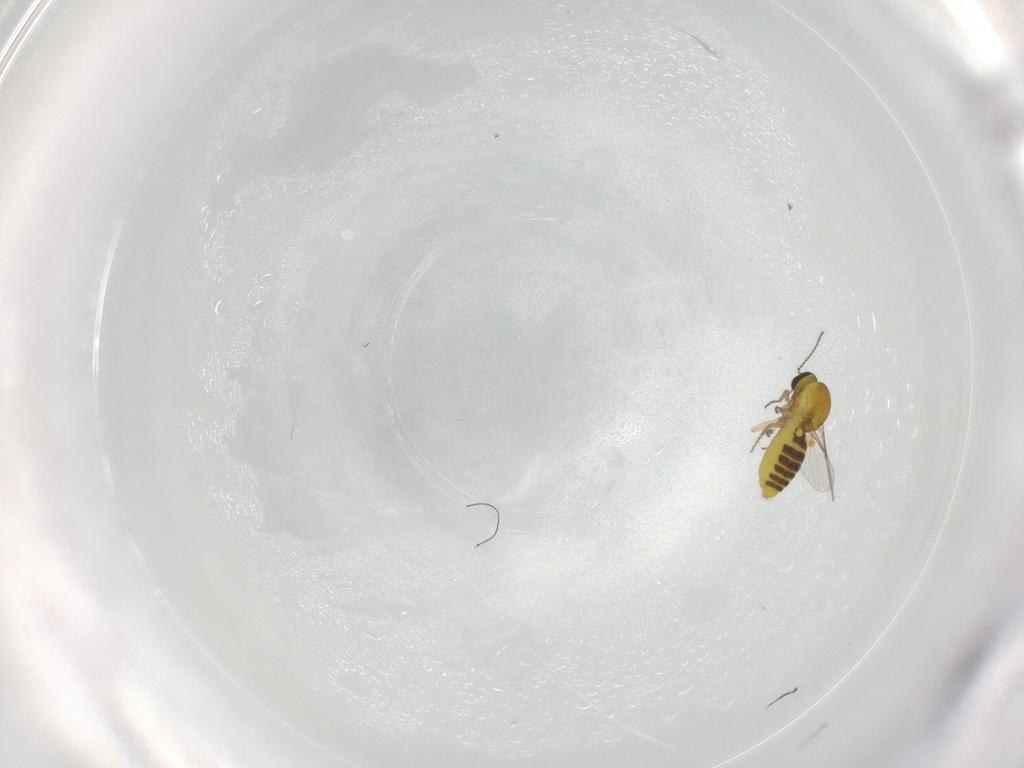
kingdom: Animalia
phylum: Arthropoda
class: Insecta
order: Diptera
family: Ceratopogonidae
